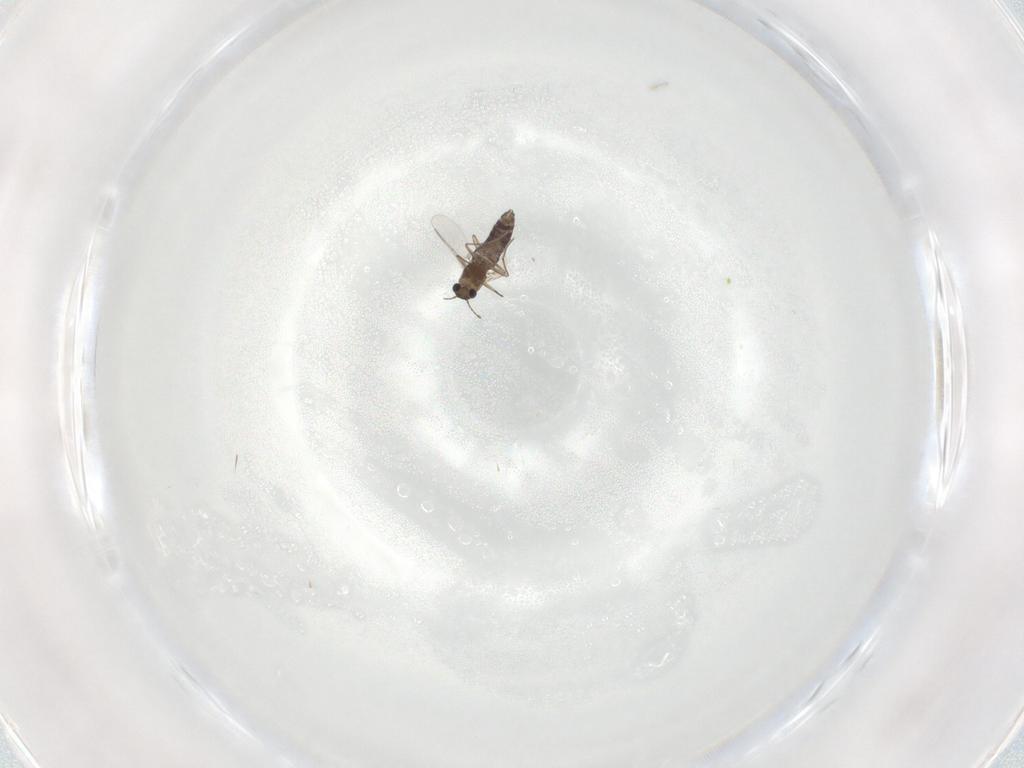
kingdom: Animalia
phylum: Arthropoda
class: Insecta
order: Diptera
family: Chironomidae
